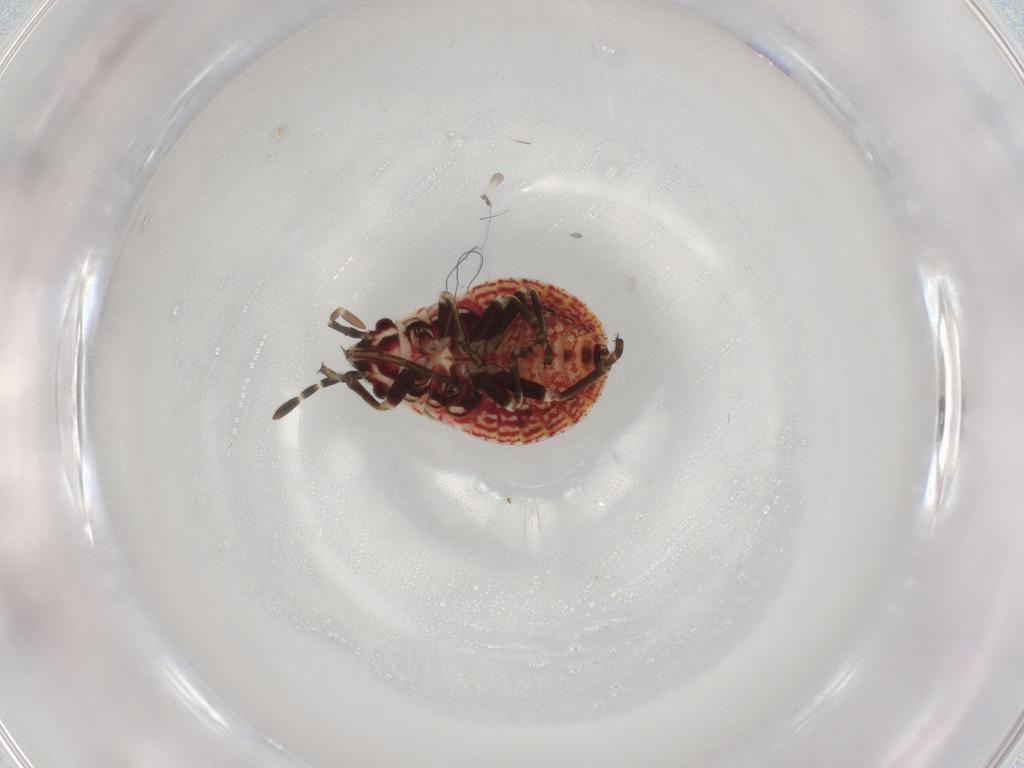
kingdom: Animalia
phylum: Arthropoda
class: Insecta
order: Hemiptera
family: Lygaeidae
